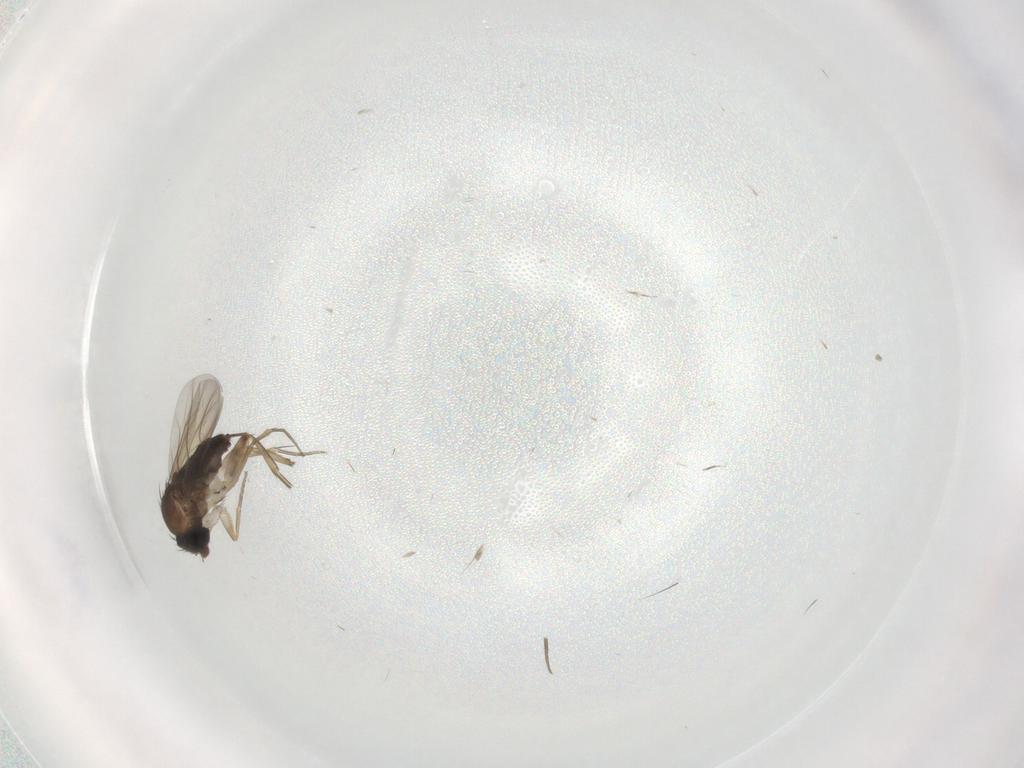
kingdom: Animalia
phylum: Arthropoda
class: Insecta
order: Diptera
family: Phoridae
